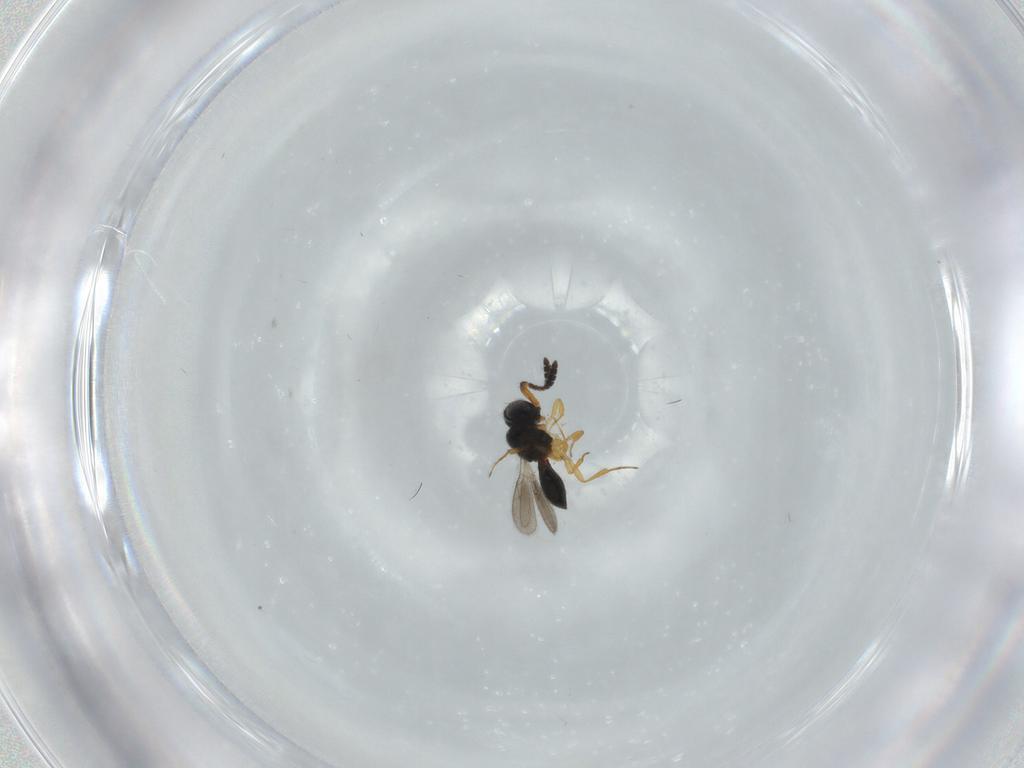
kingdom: Animalia
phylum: Arthropoda
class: Insecta
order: Hymenoptera
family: Scelionidae
